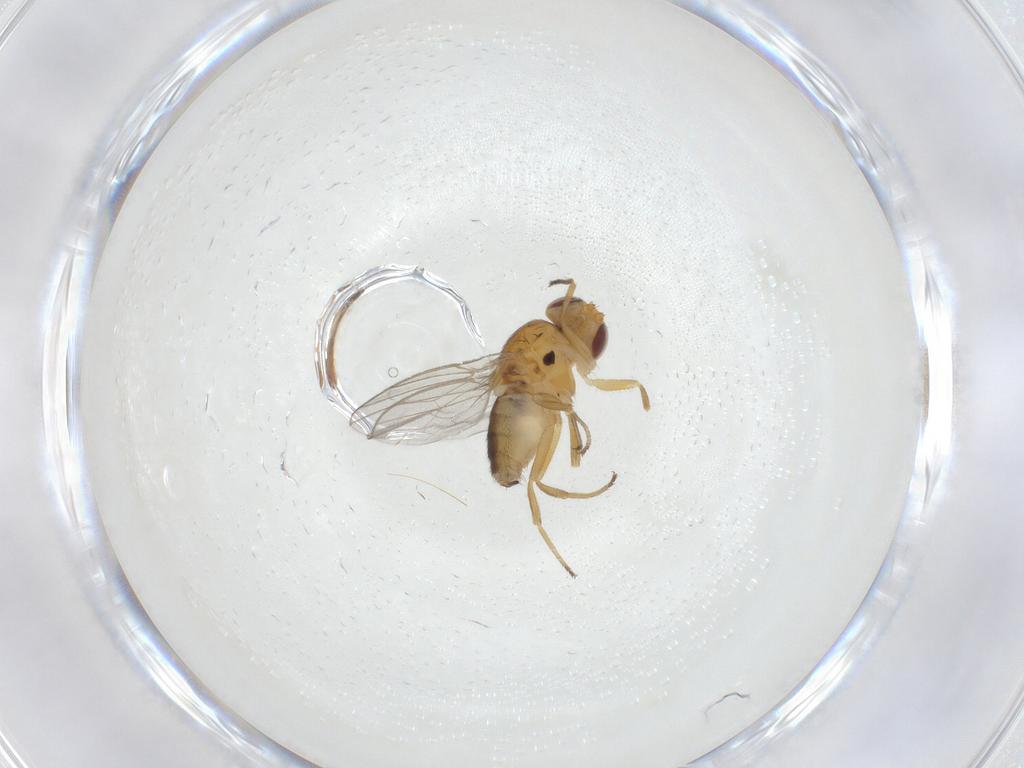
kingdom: Animalia
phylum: Arthropoda
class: Insecta
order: Diptera
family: Chloropidae
